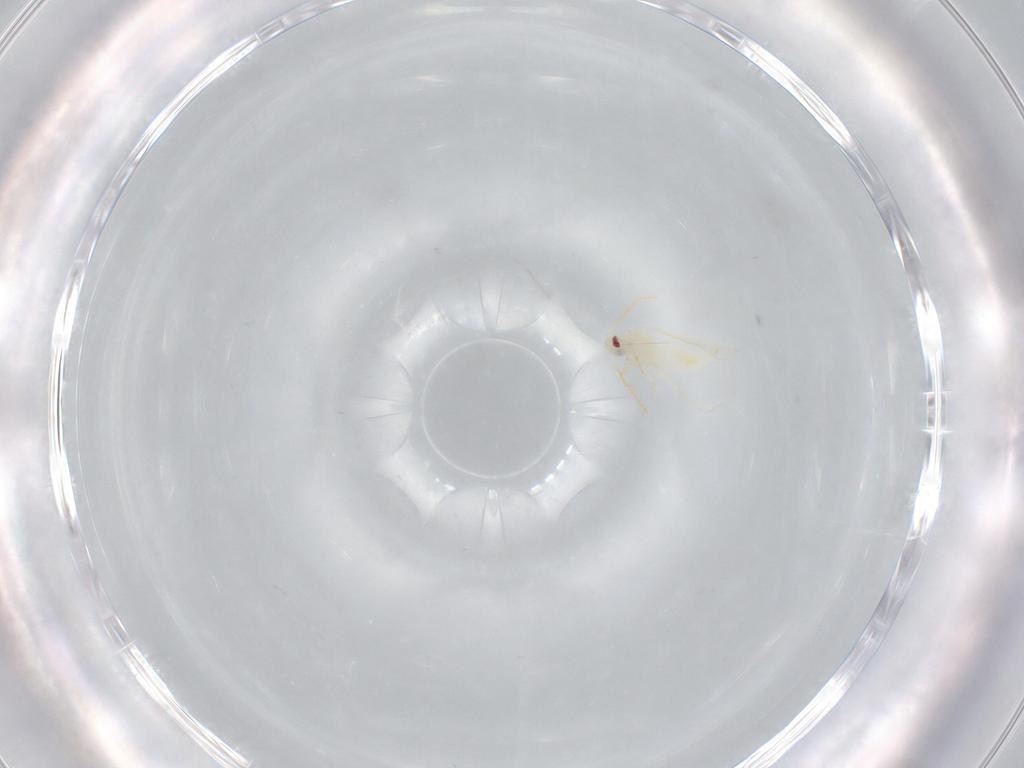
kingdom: Animalia
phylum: Arthropoda
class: Insecta
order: Hemiptera
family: Aleyrodidae
